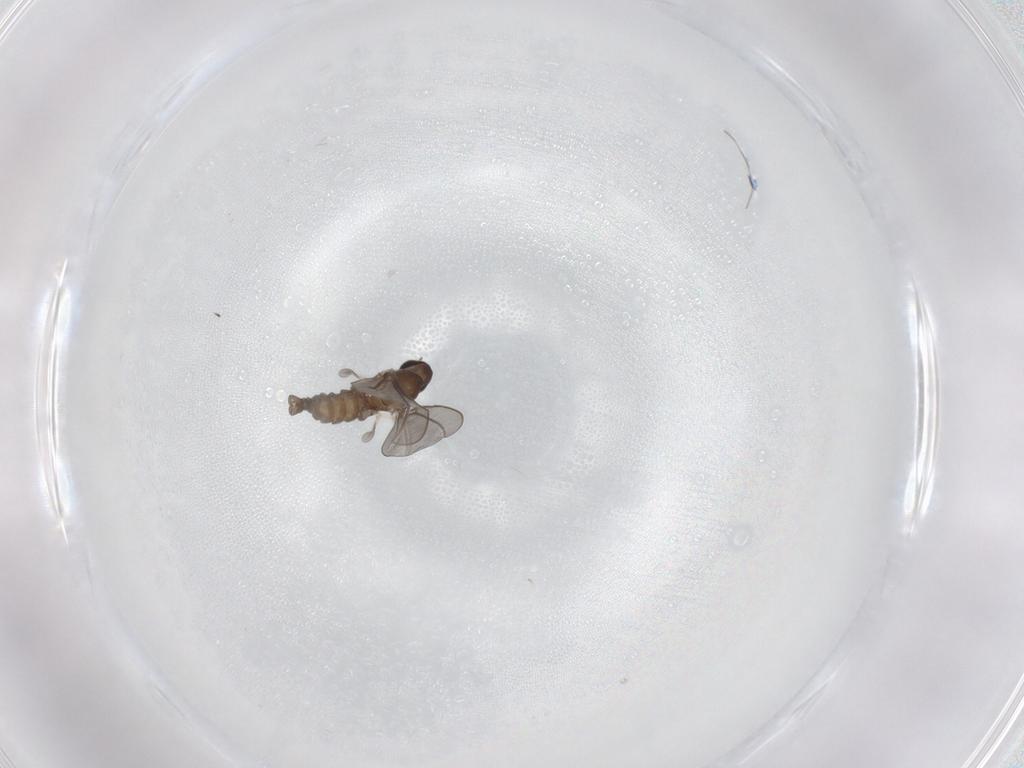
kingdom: Animalia
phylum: Arthropoda
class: Insecta
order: Diptera
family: Cecidomyiidae
